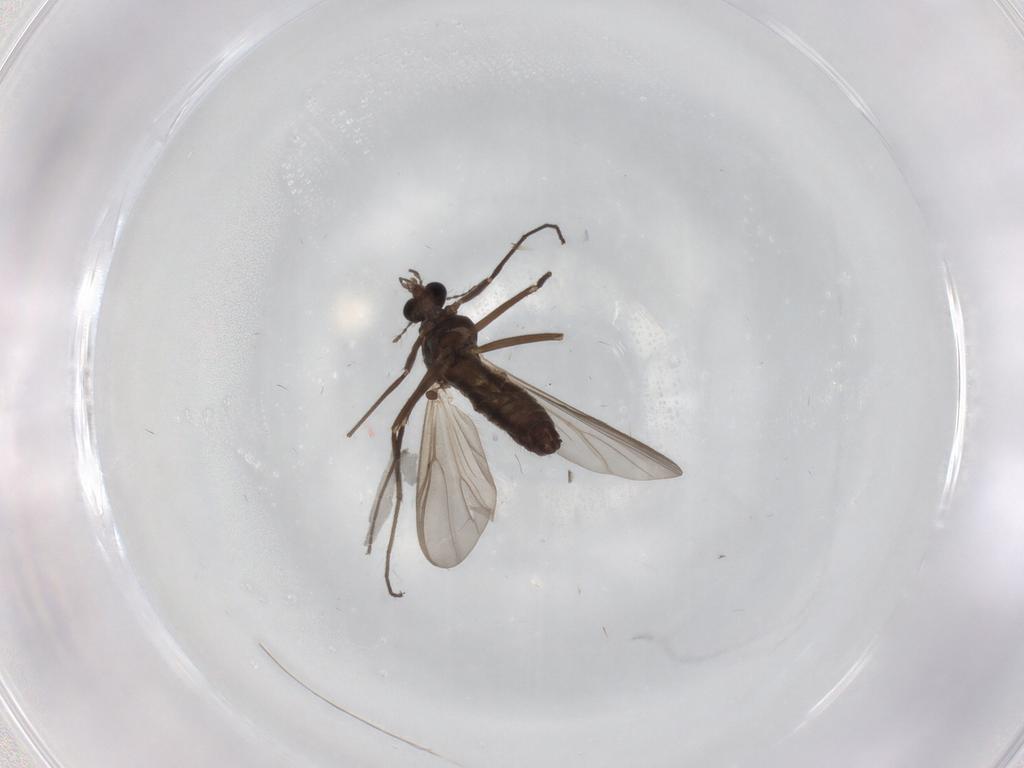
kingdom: Animalia
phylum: Arthropoda
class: Insecta
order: Diptera
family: Chironomidae
